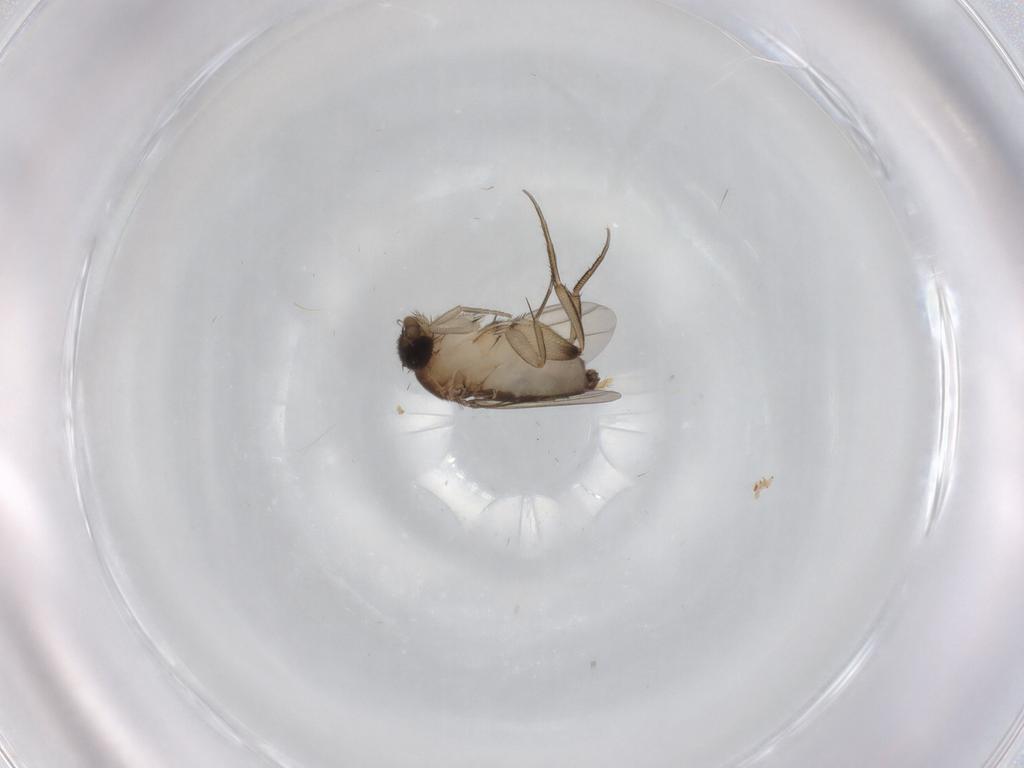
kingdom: Animalia
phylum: Arthropoda
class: Insecta
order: Diptera
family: Phoridae
